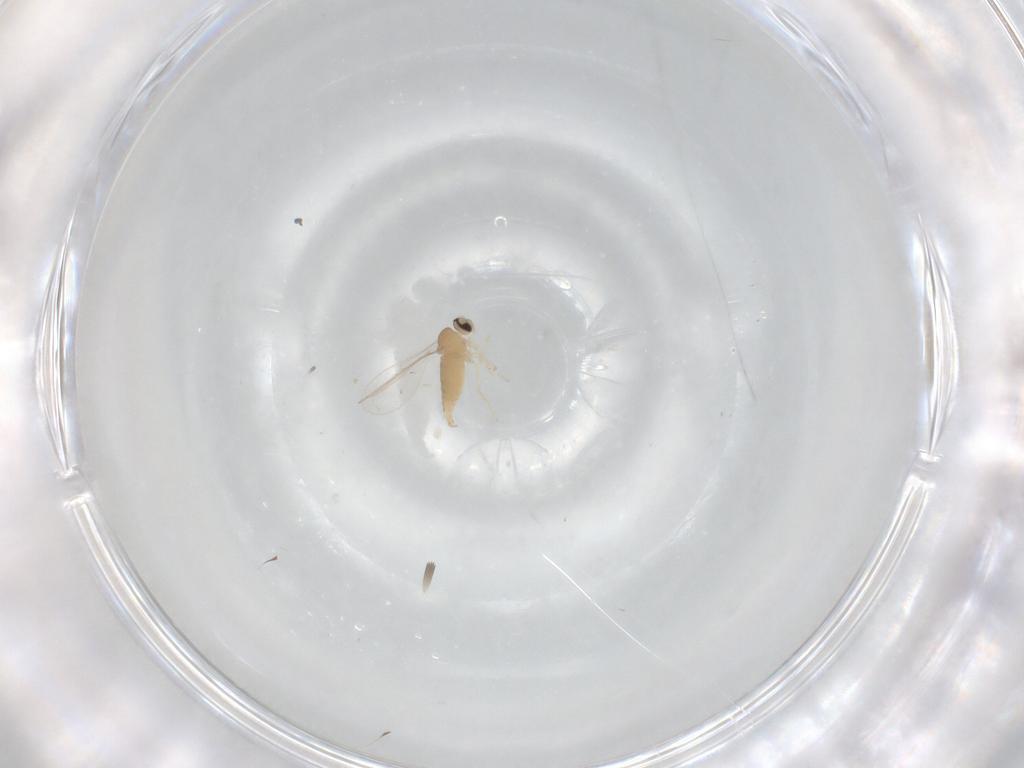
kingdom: Animalia
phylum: Arthropoda
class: Insecta
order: Diptera
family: Cecidomyiidae
